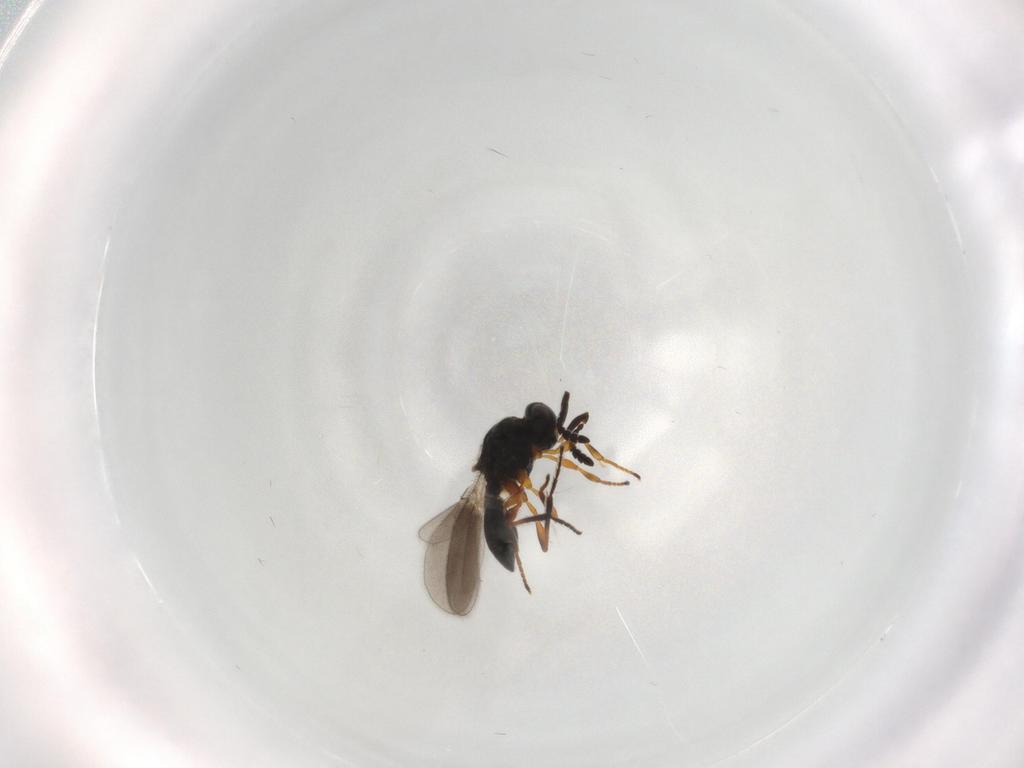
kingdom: Animalia
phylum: Arthropoda
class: Insecta
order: Hymenoptera
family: Platygastridae
